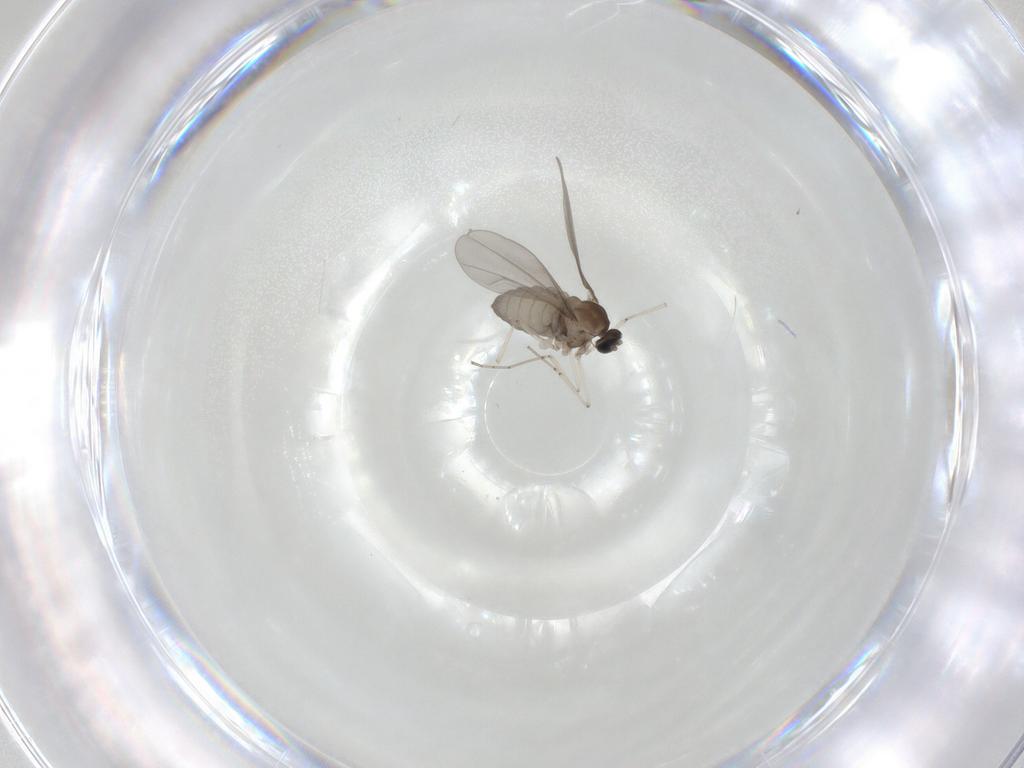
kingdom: Animalia
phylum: Arthropoda
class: Insecta
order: Diptera
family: Cecidomyiidae
